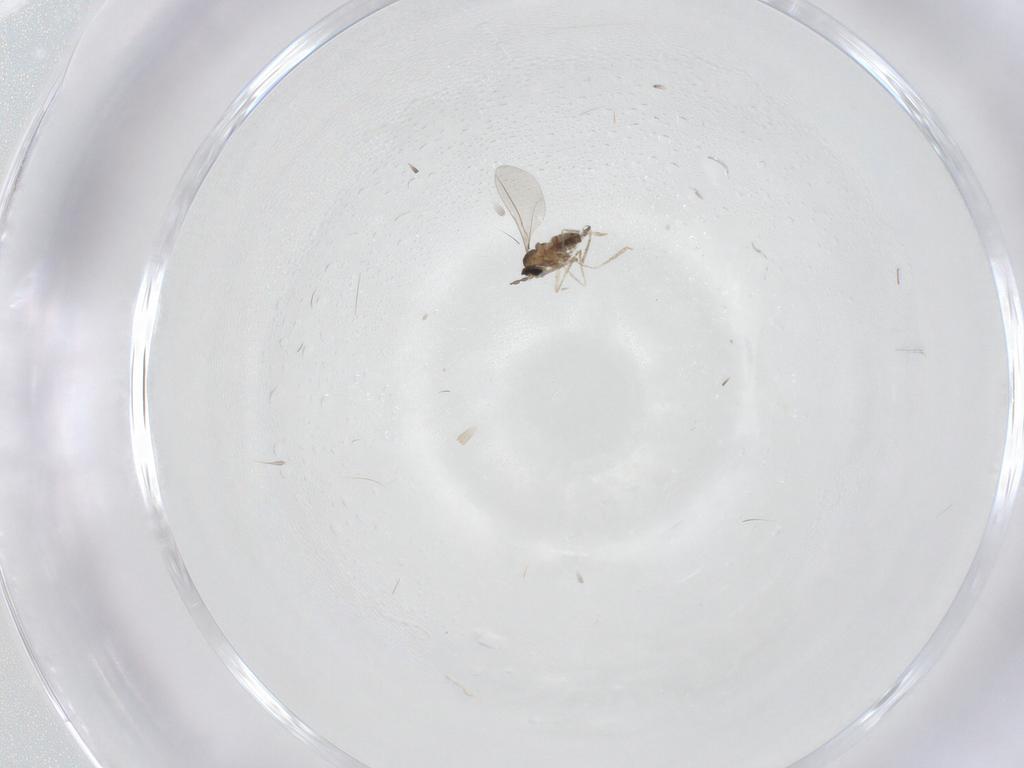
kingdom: Animalia
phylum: Arthropoda
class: Insecta
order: Diptera
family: Cecidomyiidae
